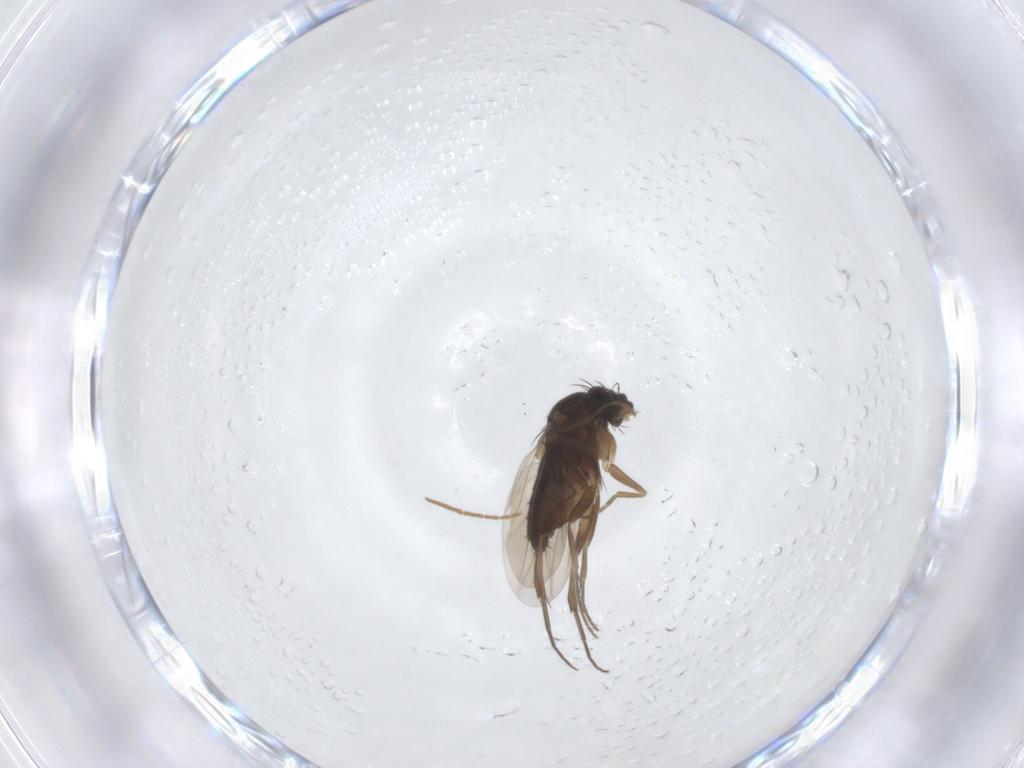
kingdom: Animalia
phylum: Arthropoda
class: Insecta
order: Diptera
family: Phoridae
